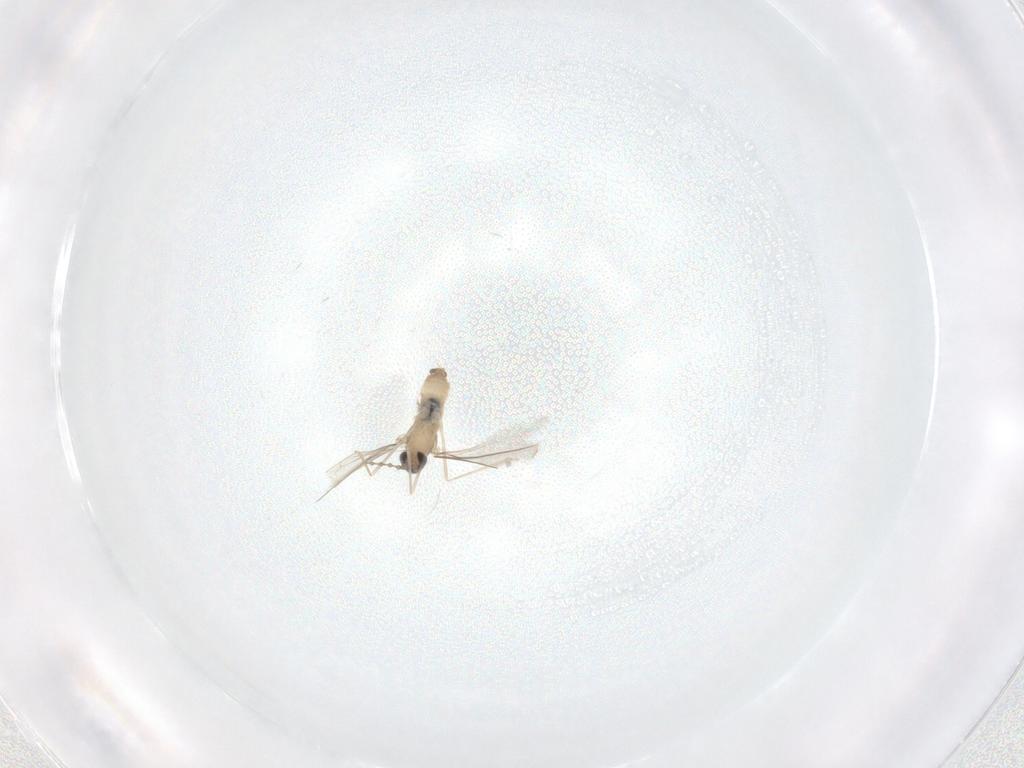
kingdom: Animalia
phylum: Arthropoda
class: Insecta
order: Diptera
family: Cecidomyiidae
